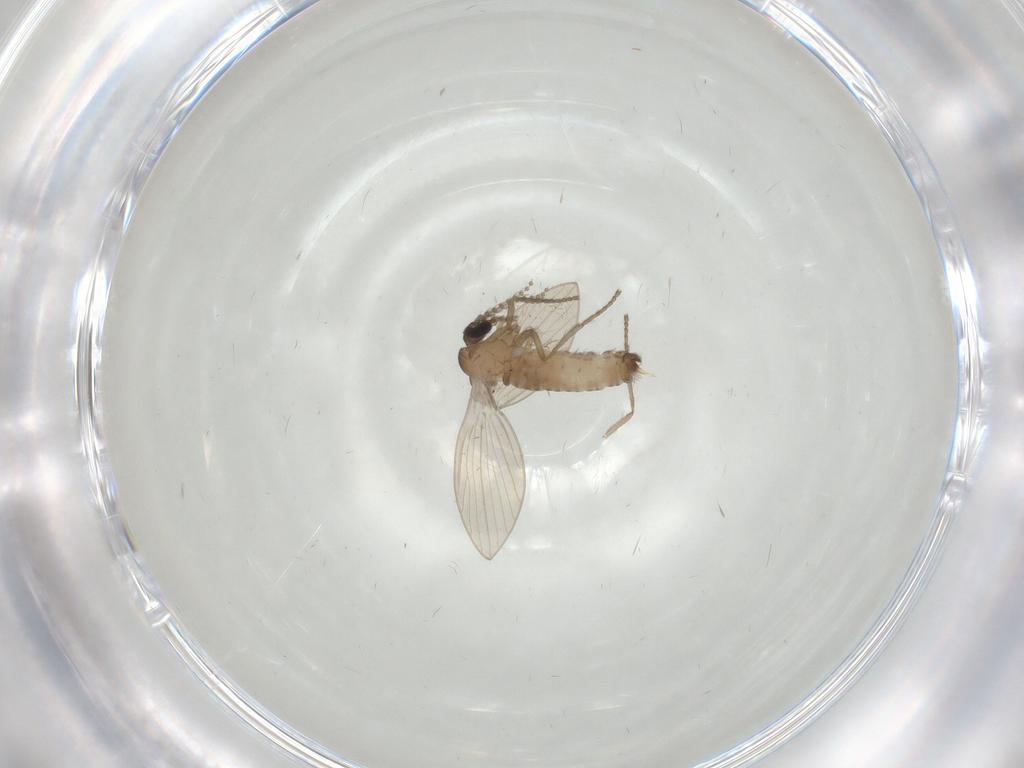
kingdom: Animalia
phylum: Arthropoda
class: Insecta
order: Diptera
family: Psychodidae
